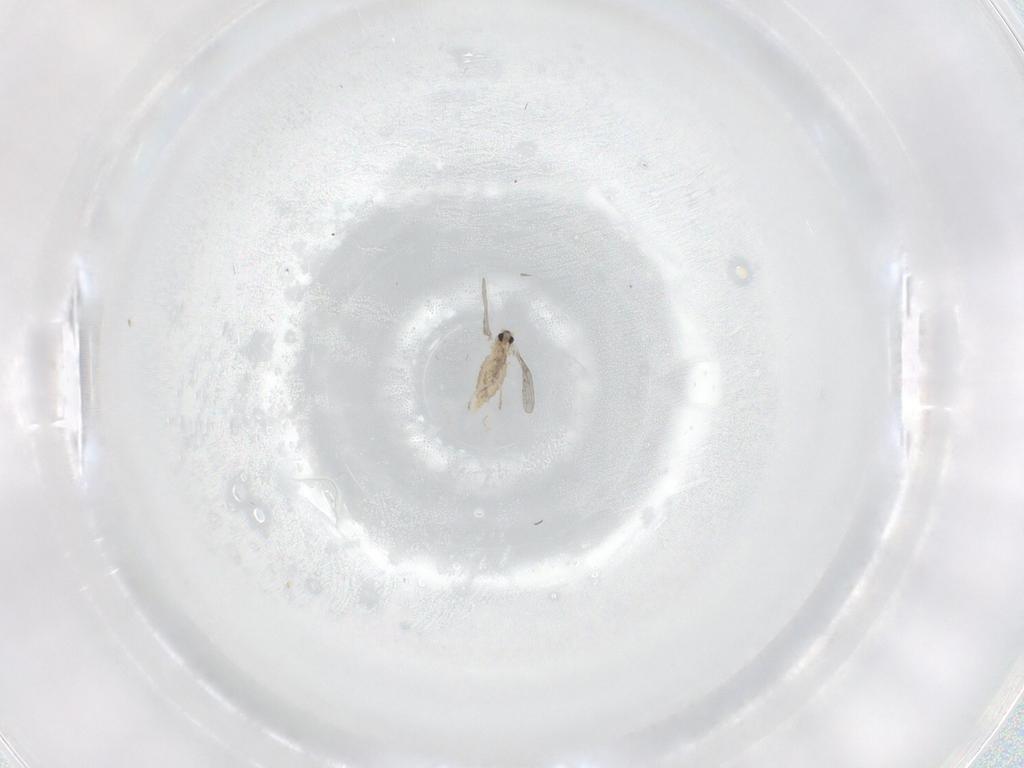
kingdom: Animalia
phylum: Arthropoda
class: Insecta
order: Diptera
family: Cecidomyiidae
